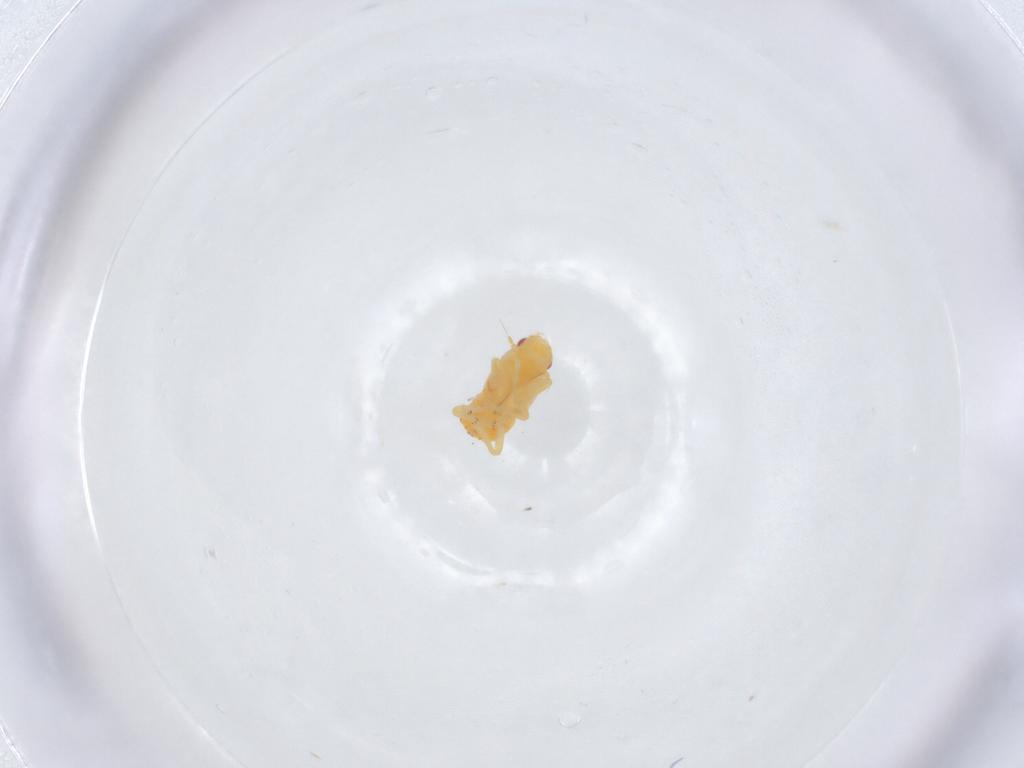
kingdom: Animalia
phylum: Arthropoda
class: Insecta
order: Hemiptera
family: Flatidae
